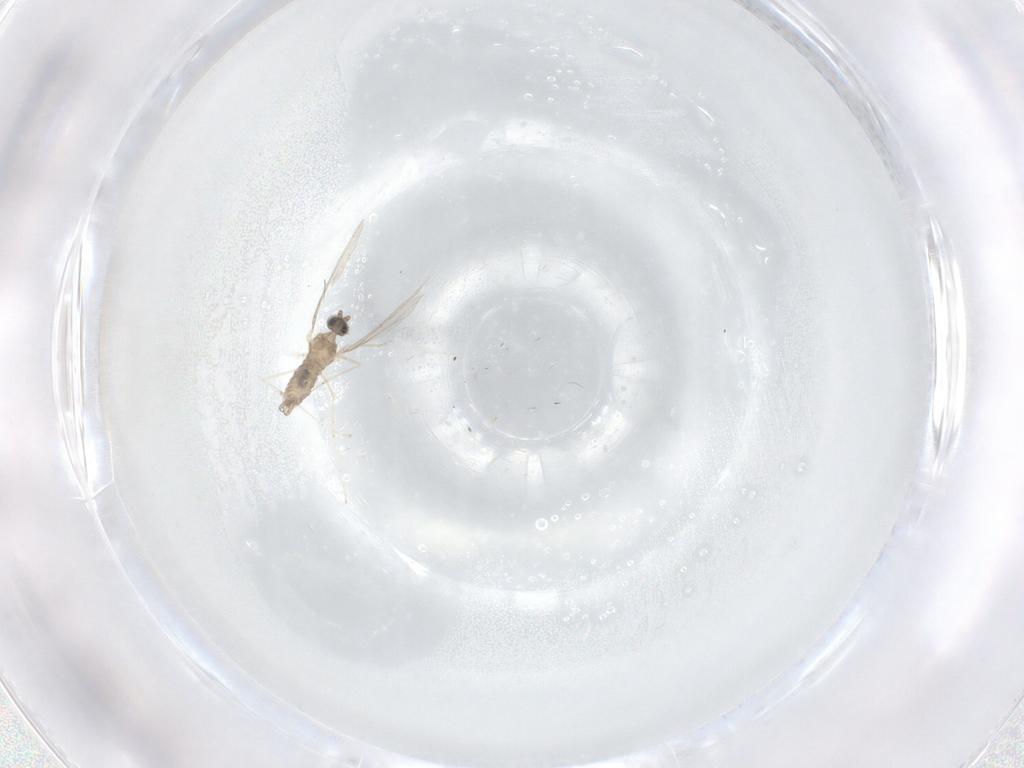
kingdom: Animalia
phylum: Arthropoda
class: Insecta
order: Diptera
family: Cecidomyiidae
